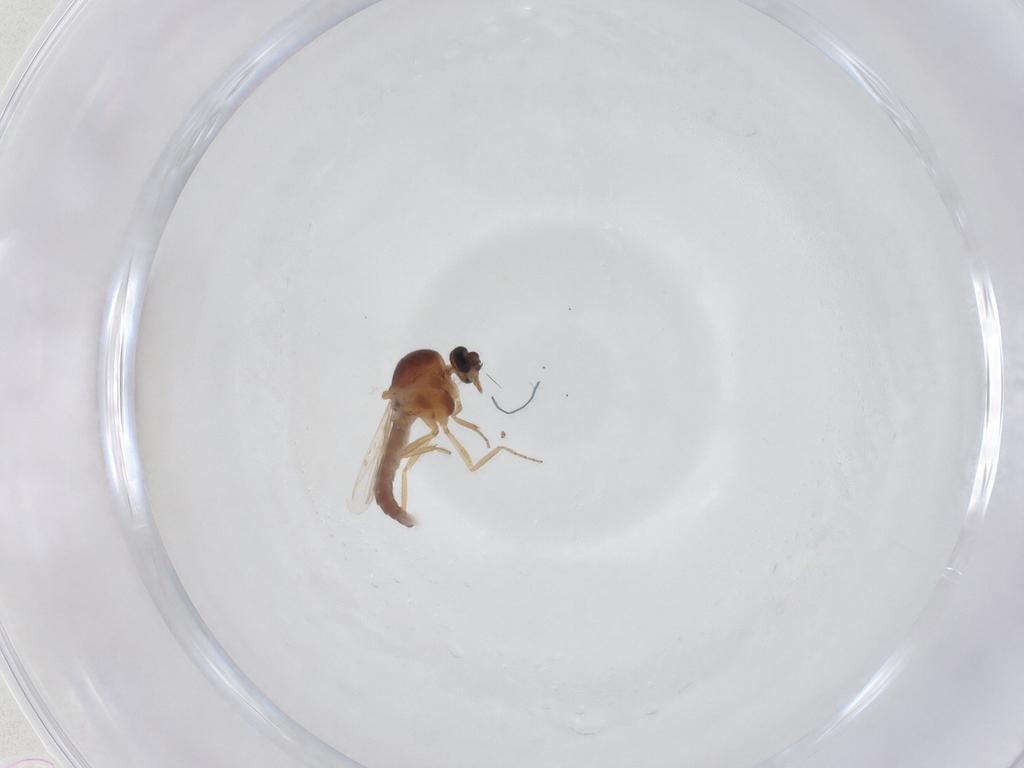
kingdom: Animalia
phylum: Arthropoda
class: Insecta
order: Diptera
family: Ceratopogonidae
